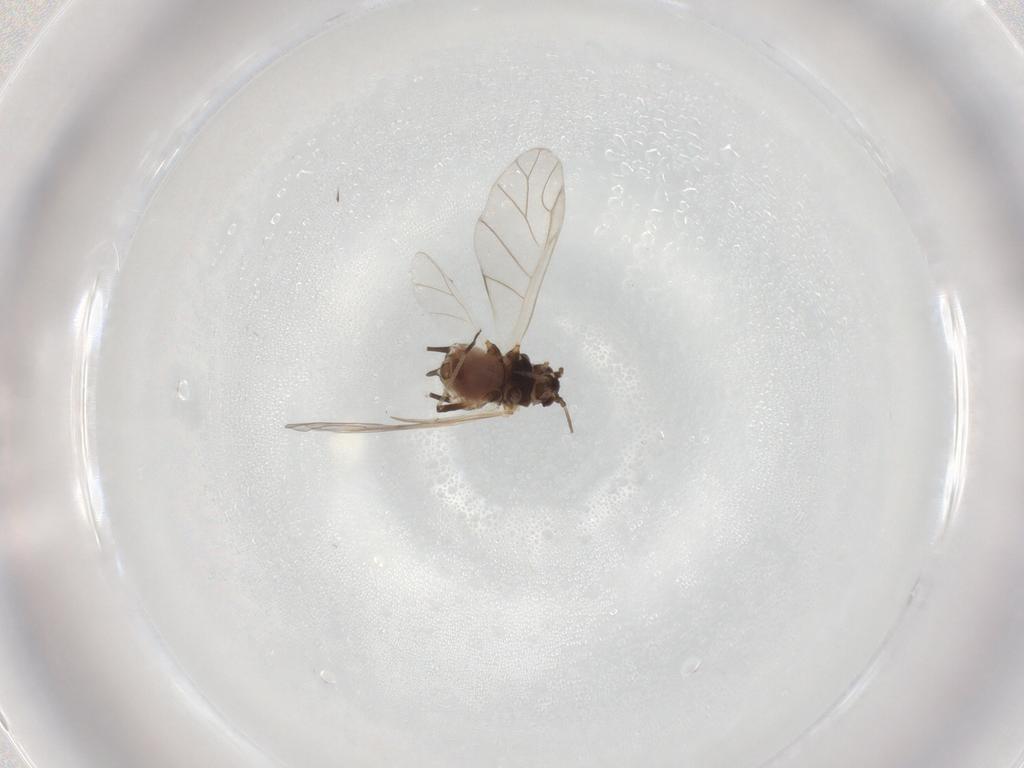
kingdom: Animalia
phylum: Arthropoda
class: Insecta
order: Hemiptera
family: Aphididae
